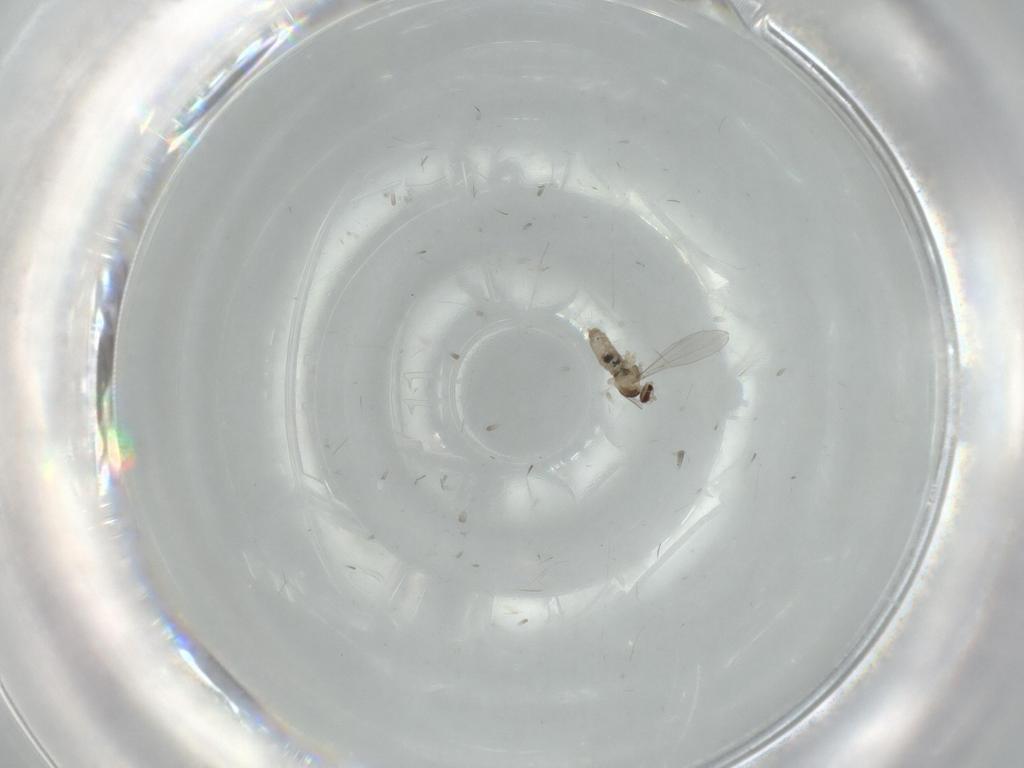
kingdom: Animalia
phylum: Arthropoda
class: Insecta
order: Diptera
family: Cecidomyiidae
